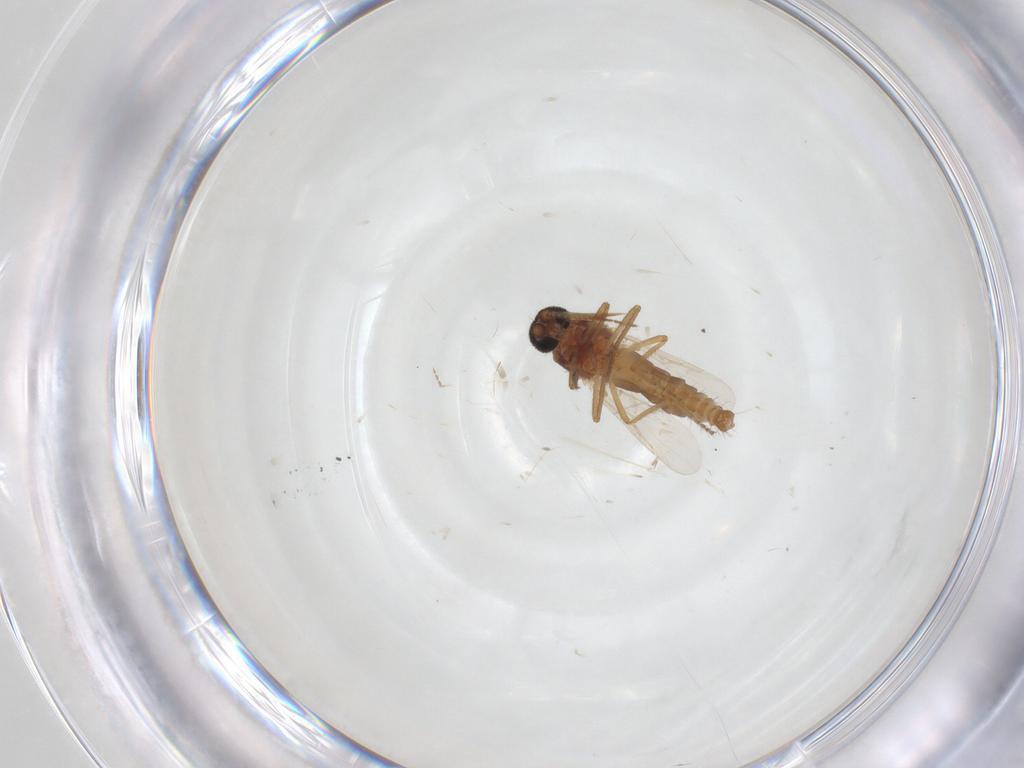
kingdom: Animalia
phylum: Arthropoda
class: Insecta
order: Diptera
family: Ceratopogonidae
